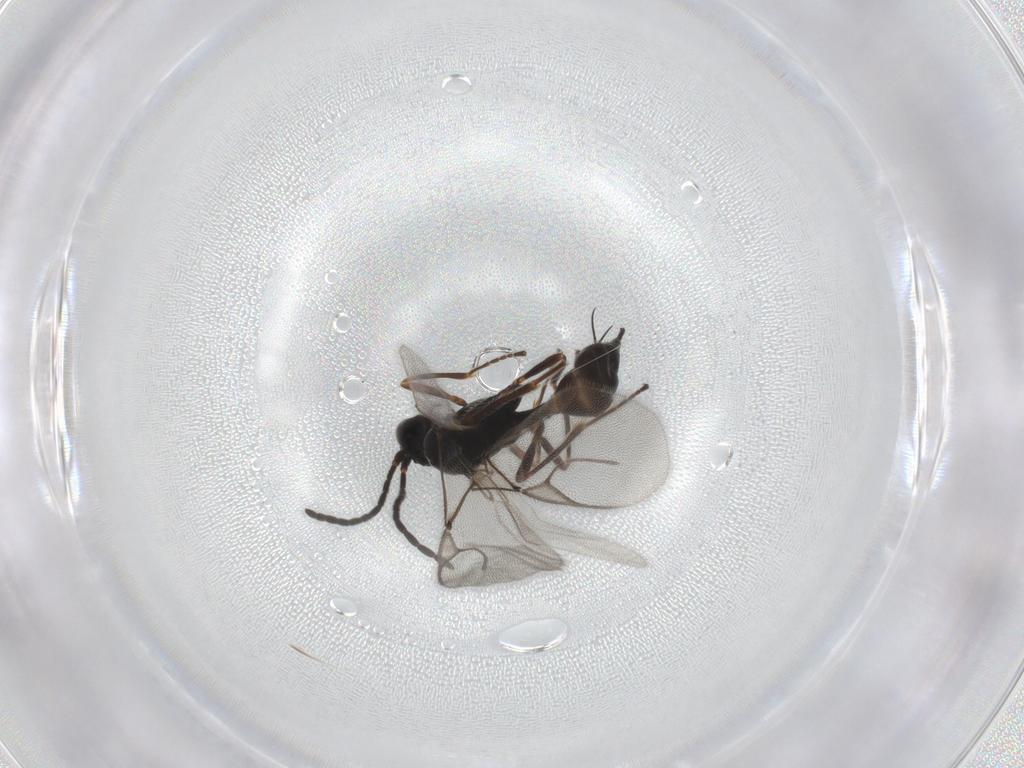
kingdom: Animalia
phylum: Arthropoda
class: Insecta
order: Hymenoptera
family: Braconidae
